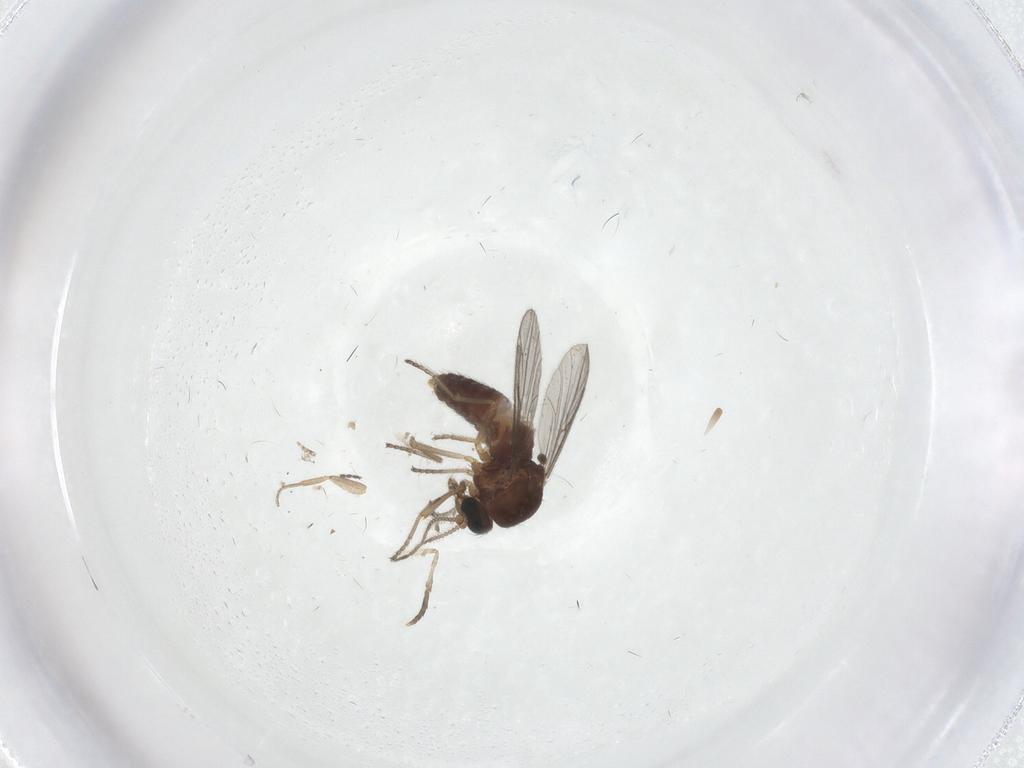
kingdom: Animalia
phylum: Arthropoda
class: Insecta
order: Diptera
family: Ceratopogonidae
